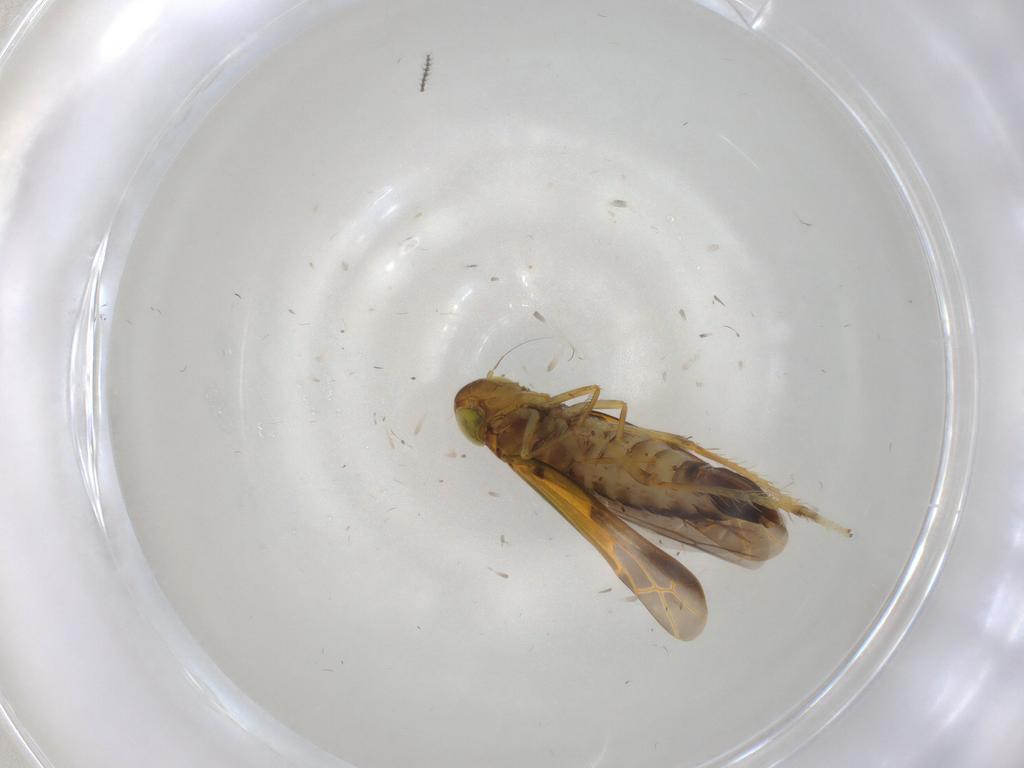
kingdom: Animalia
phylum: Arthropoda
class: Insecta
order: Hemiptera
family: Cicadellidae
